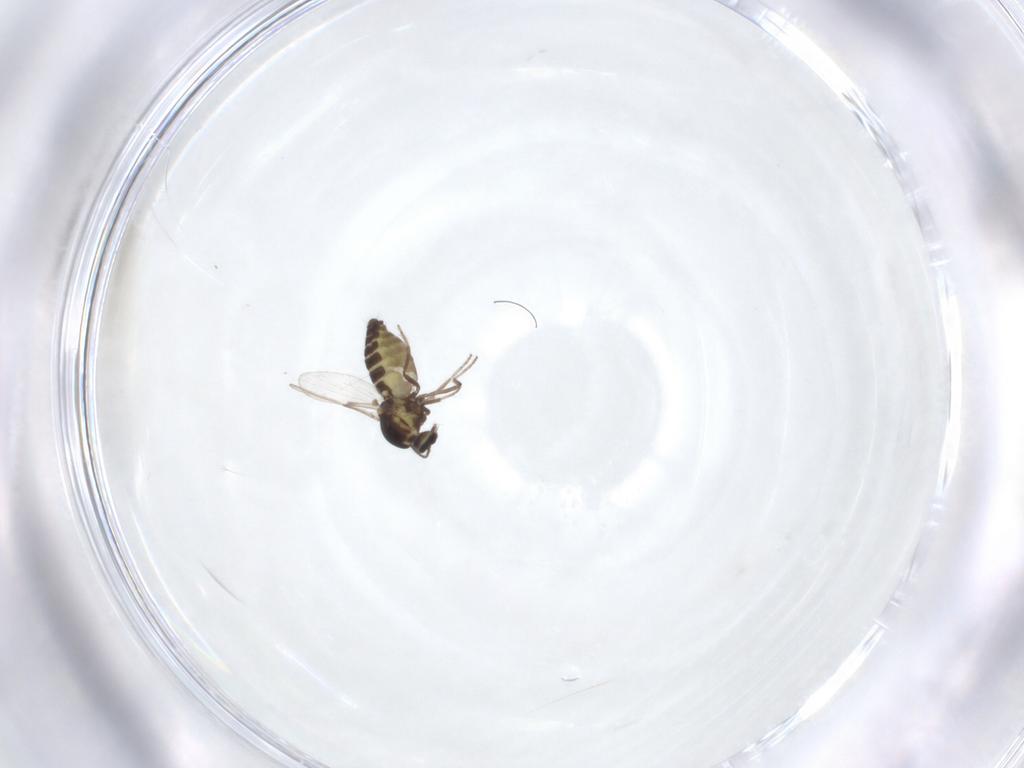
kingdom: Animalia
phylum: Arthropoda
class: Insecta
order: Diptera
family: Ceratopogonidae
